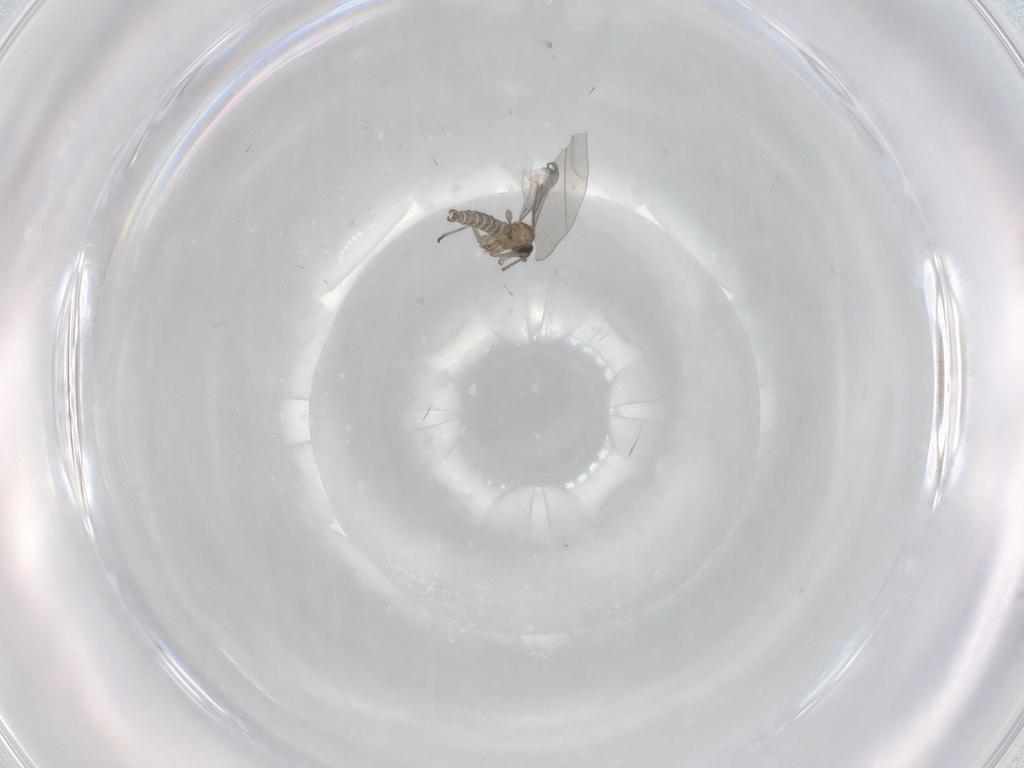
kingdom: Animalia
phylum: Arthropoda
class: Insecta
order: Diptera
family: Sciaridae
